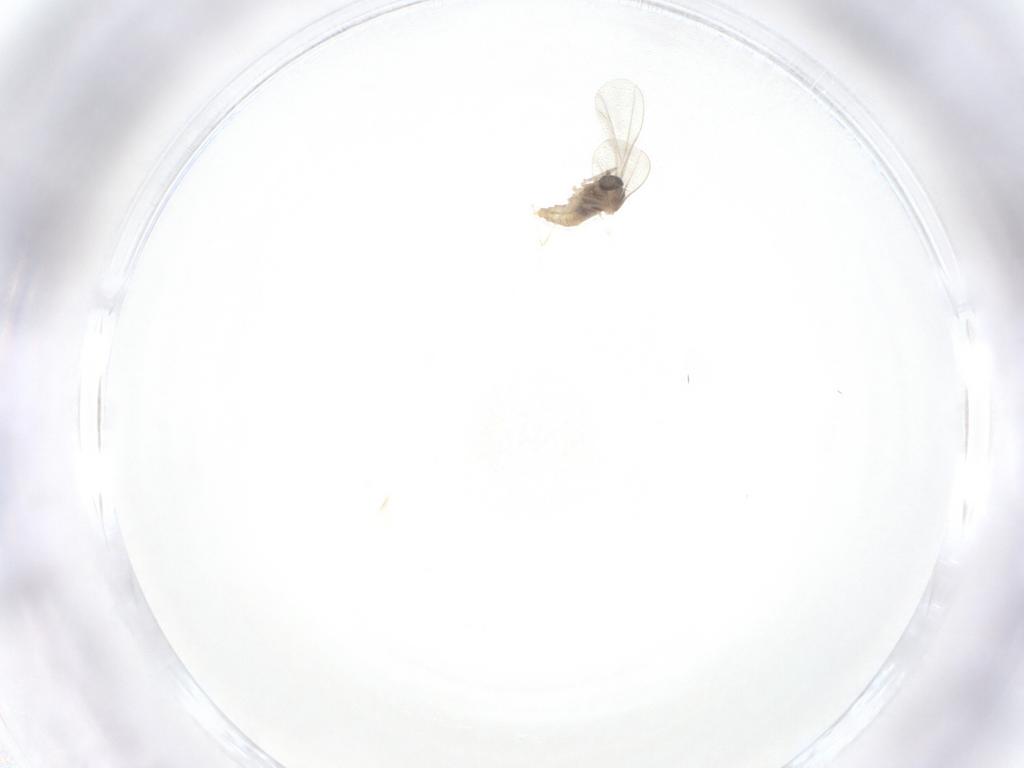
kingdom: Animalia
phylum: Arthropoda
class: Insecta
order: Diptera
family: Cecidomyiidae
